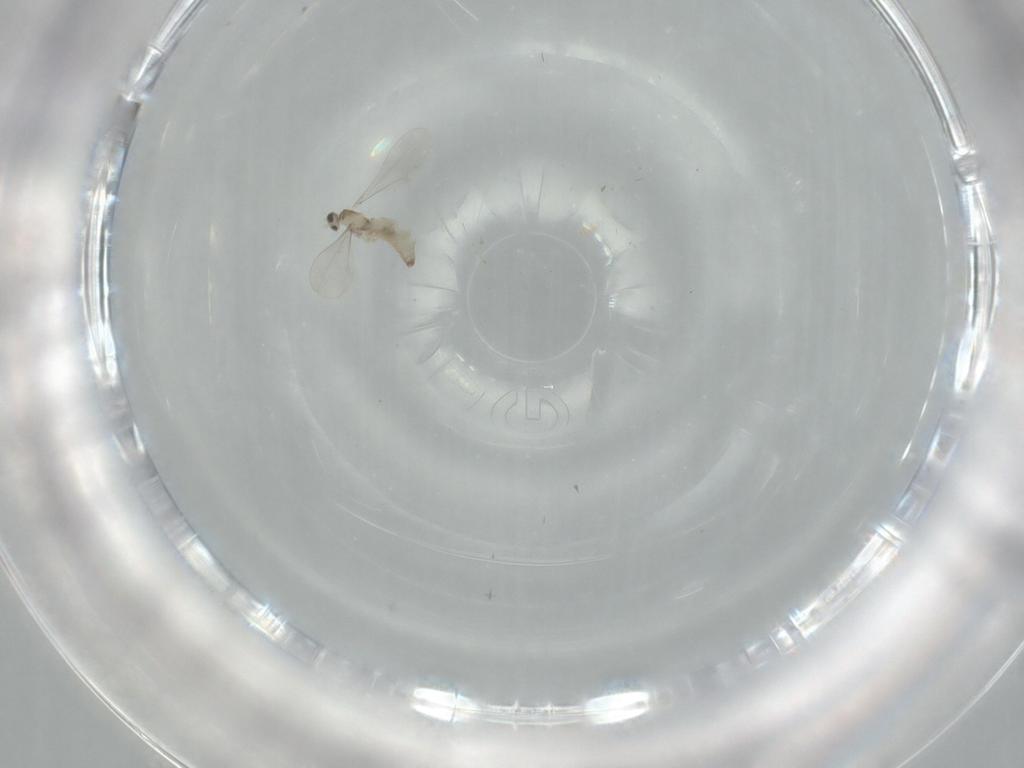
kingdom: Animalia
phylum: Arthropoda
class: Insecta
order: Diptera
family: Cecidomyiidae
